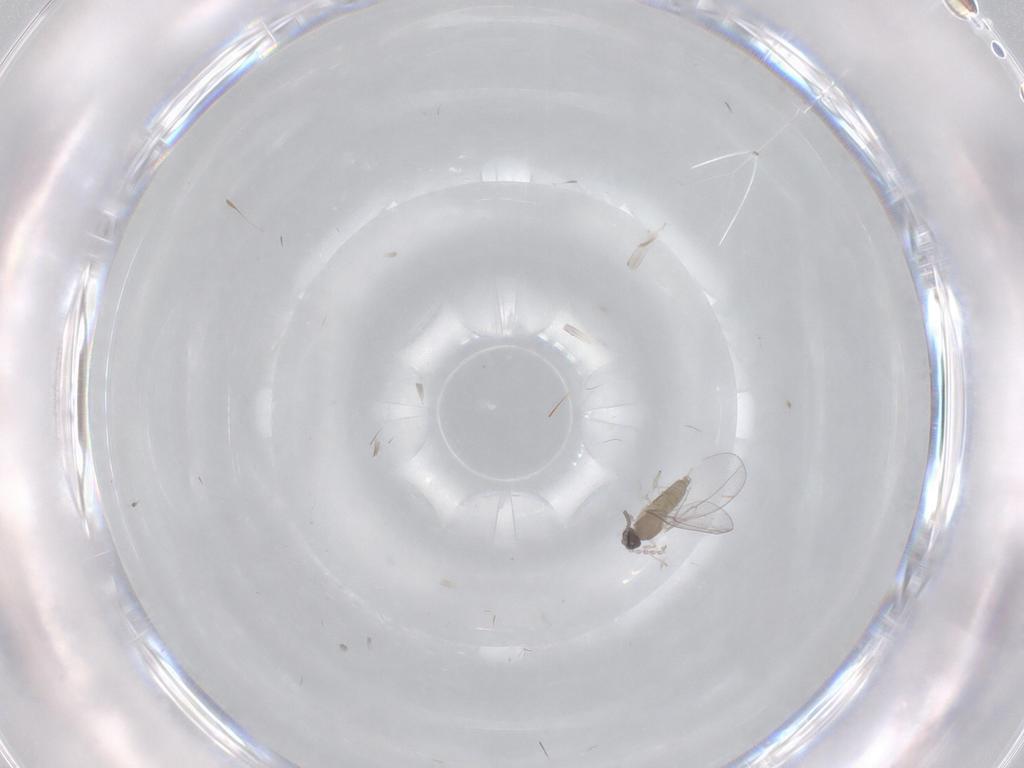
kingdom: Animalia
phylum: Arthropoda
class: Insecta
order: Diptera
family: Cecidomyiidae
